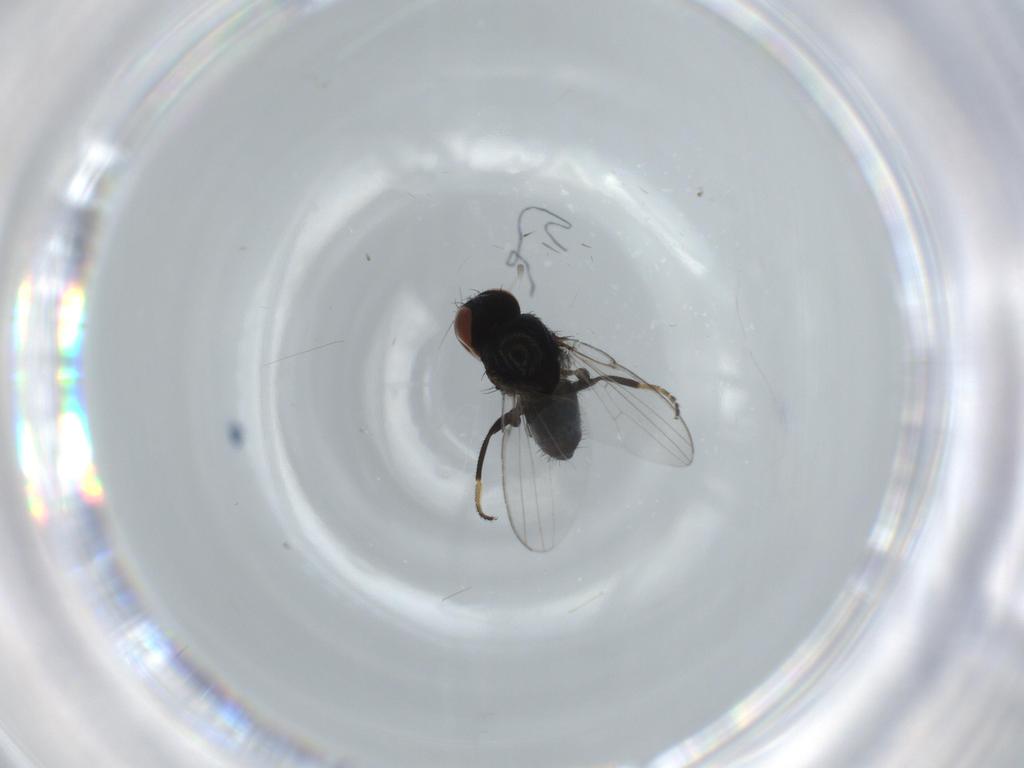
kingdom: Animalia
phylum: Arthropoda
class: Insecta
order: Diptera
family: Milichiidae
